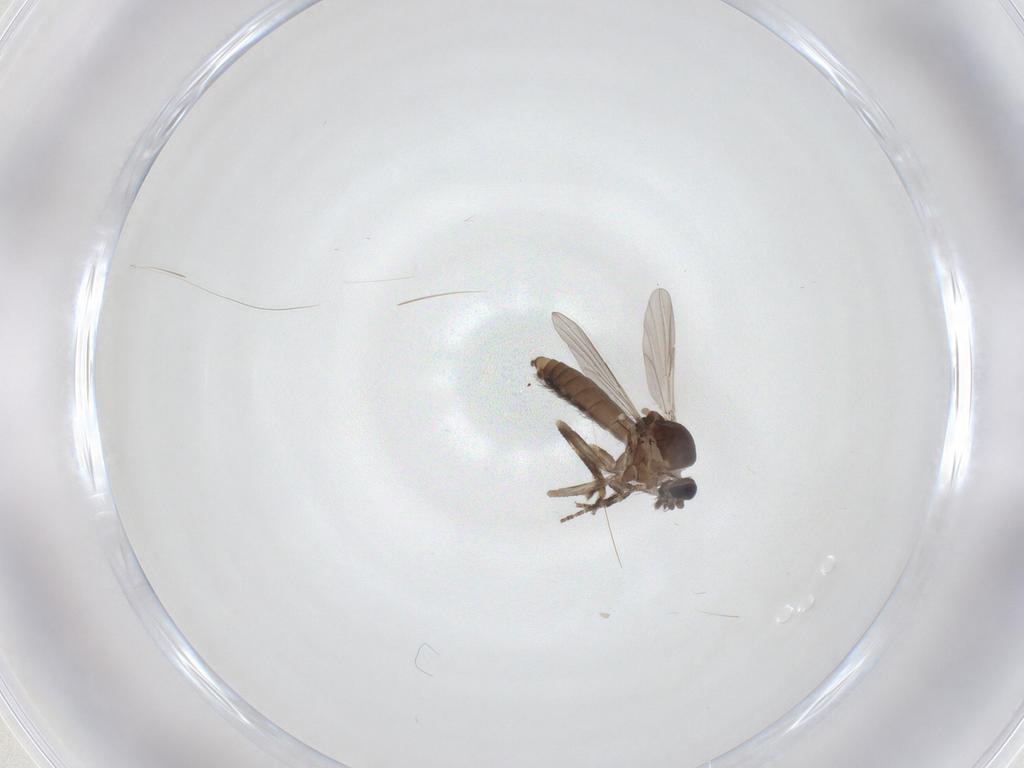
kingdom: Animalia
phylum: Arthropoda
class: Insecta
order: Diptera
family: Ceratopogonidae
